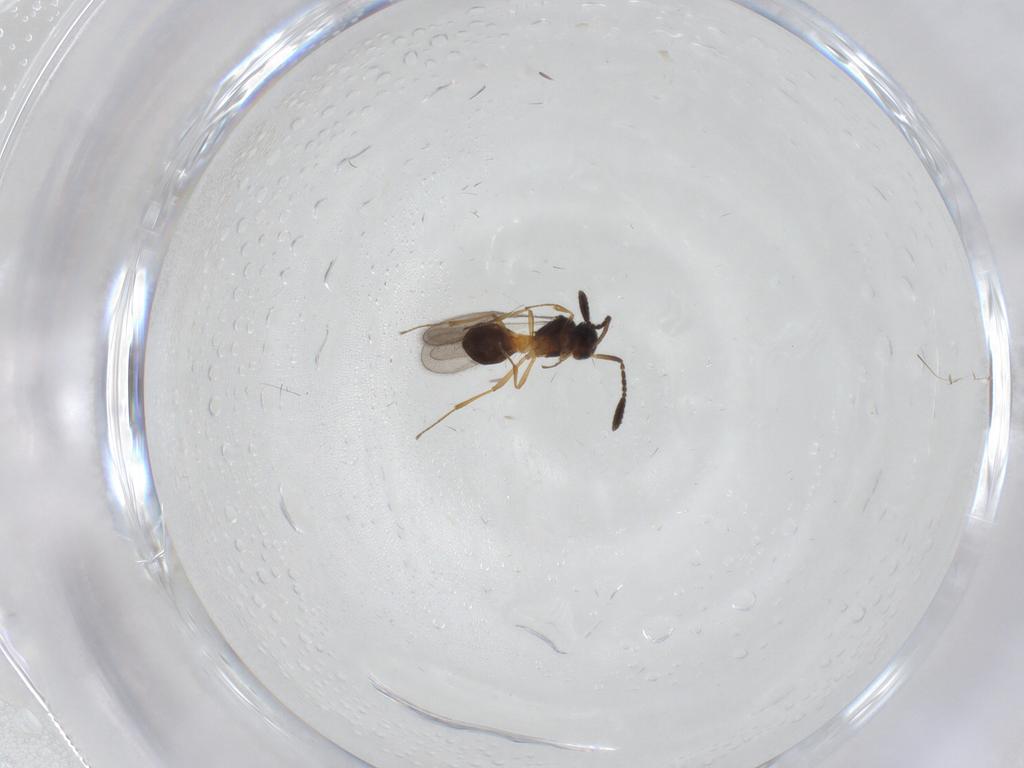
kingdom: Animalia
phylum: Arthropoda
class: Insecta
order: Hymenoptera
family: Scelionidae
